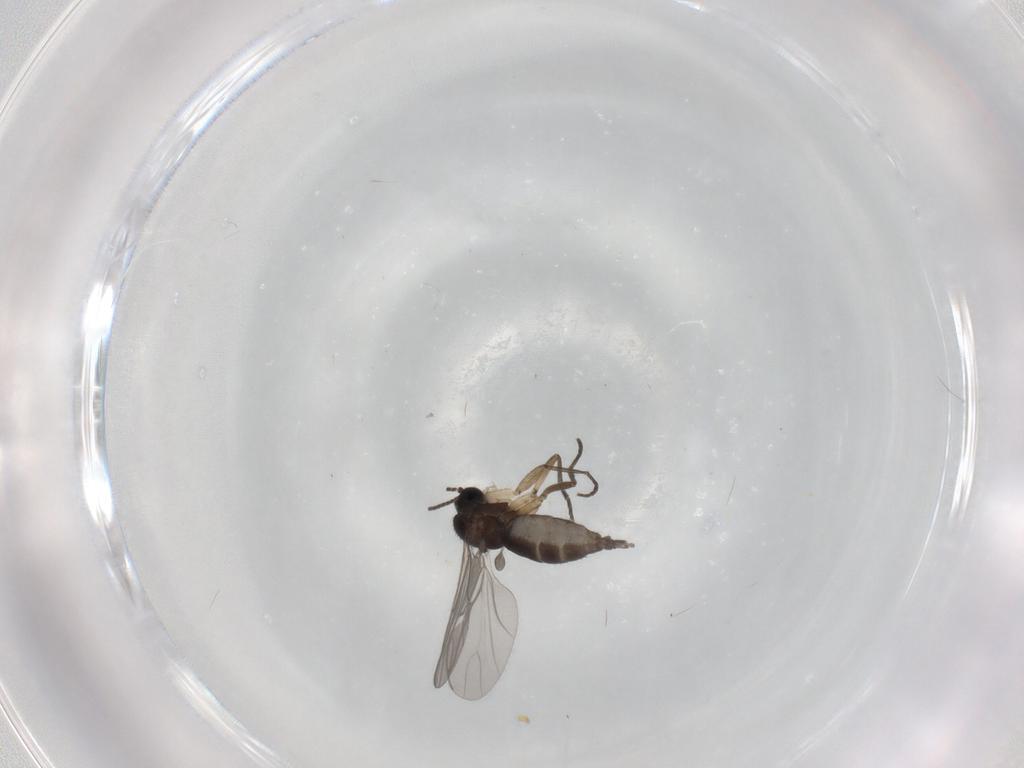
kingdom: Animalia
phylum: Arthropoda
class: Insecta
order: Diptera
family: Sciaridae
